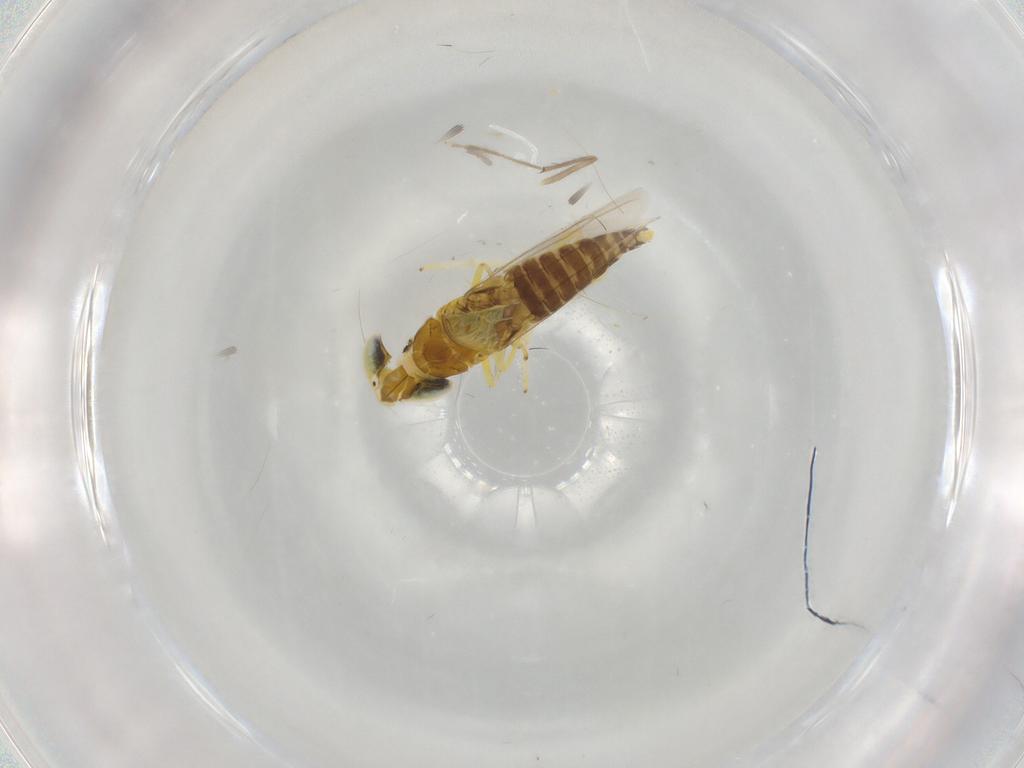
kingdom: Animalia
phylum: Arthropoda
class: Insecta
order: Hemiptera
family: Cicadellidae
